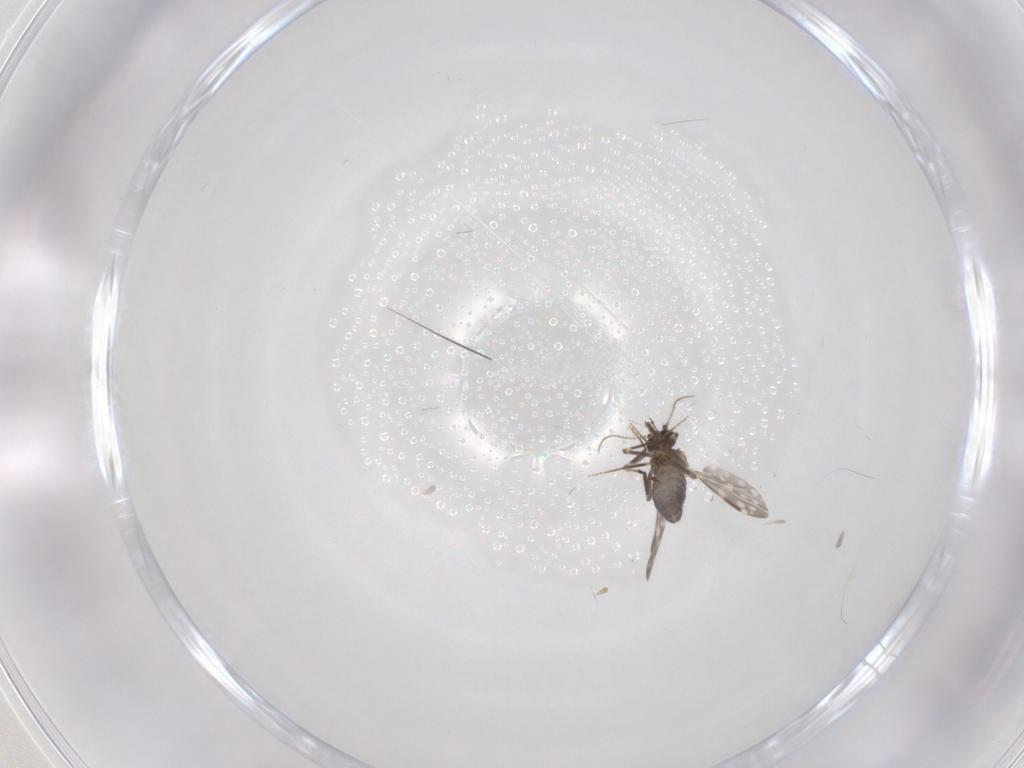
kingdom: Animalia
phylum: Arthropoda
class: Insecta
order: Diptera
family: Ceratopogonidae
